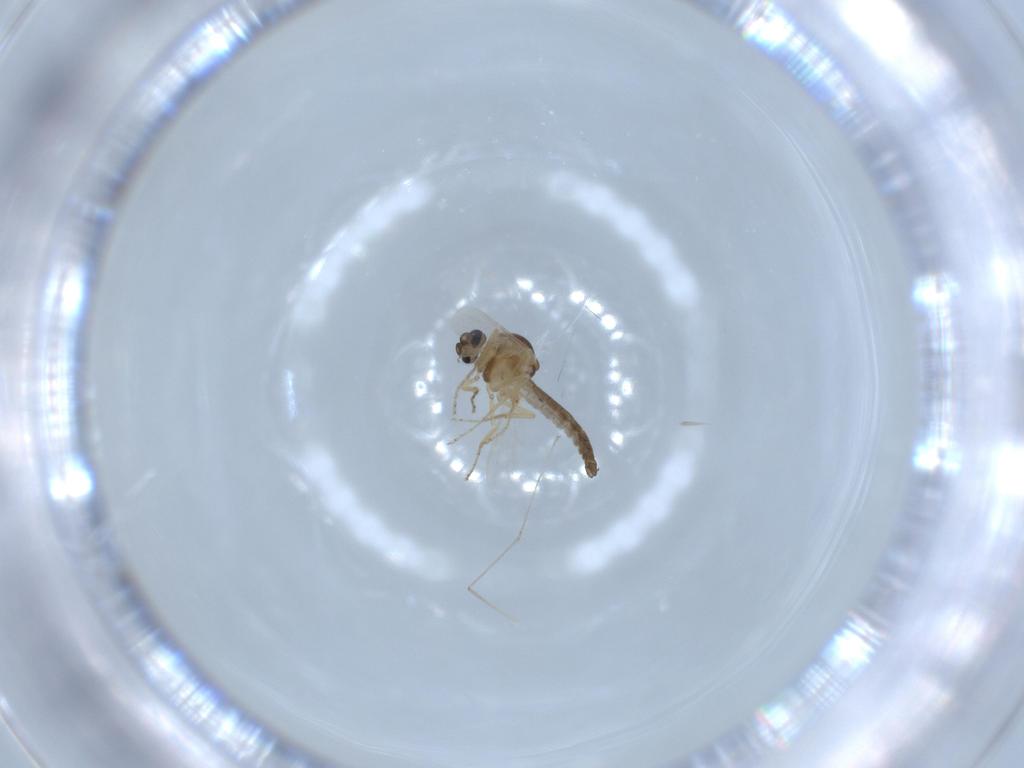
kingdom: Animalia
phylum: Arthropoda
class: Insecta
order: Diptera
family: Ceratopogonidae
